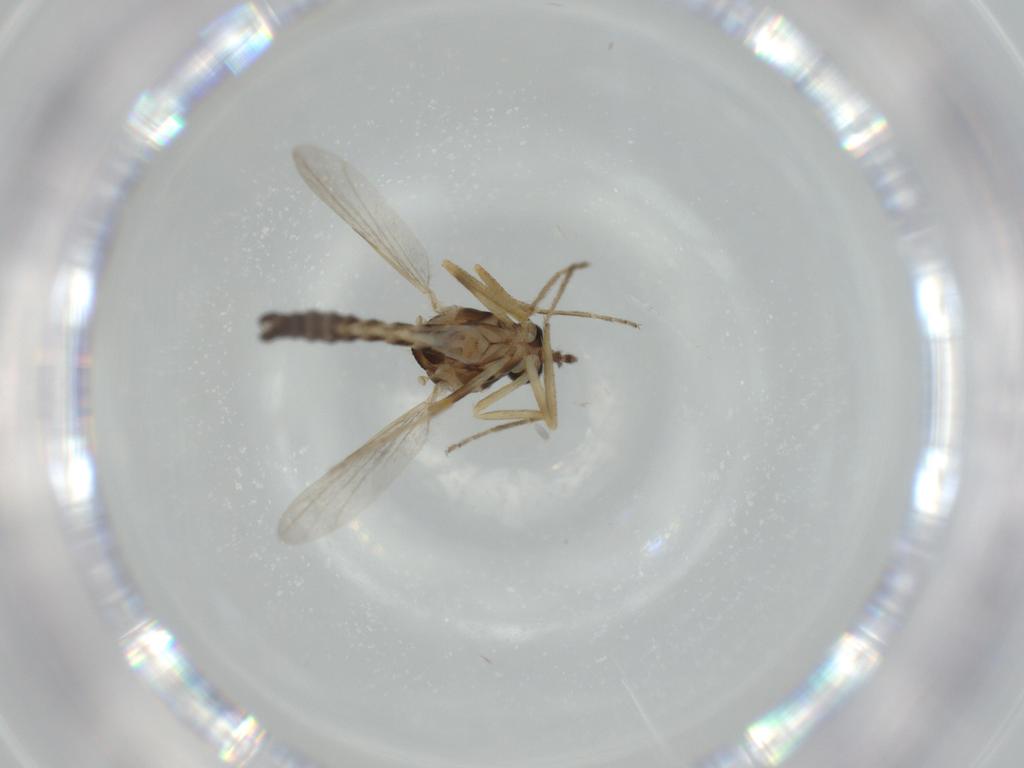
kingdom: Animalia
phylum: Arthropoda
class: Insecta
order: Diptera
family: Ceratopogonidae
